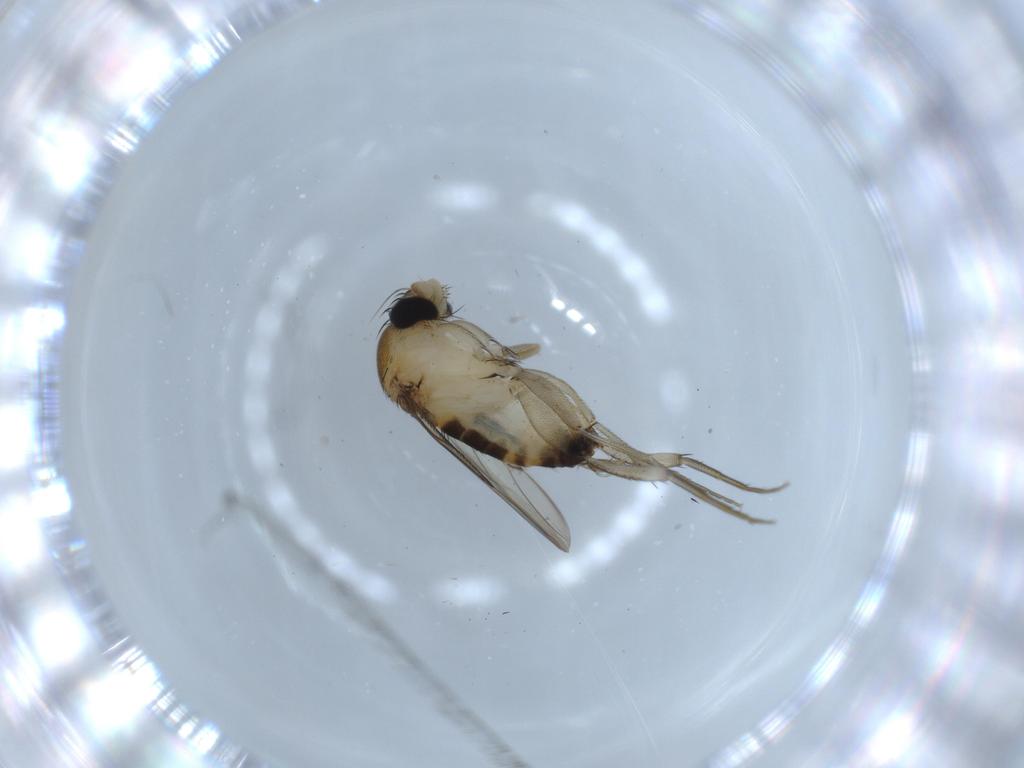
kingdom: Animalia
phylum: Arthropoda
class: Insecta
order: Diptera
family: Phoridae
